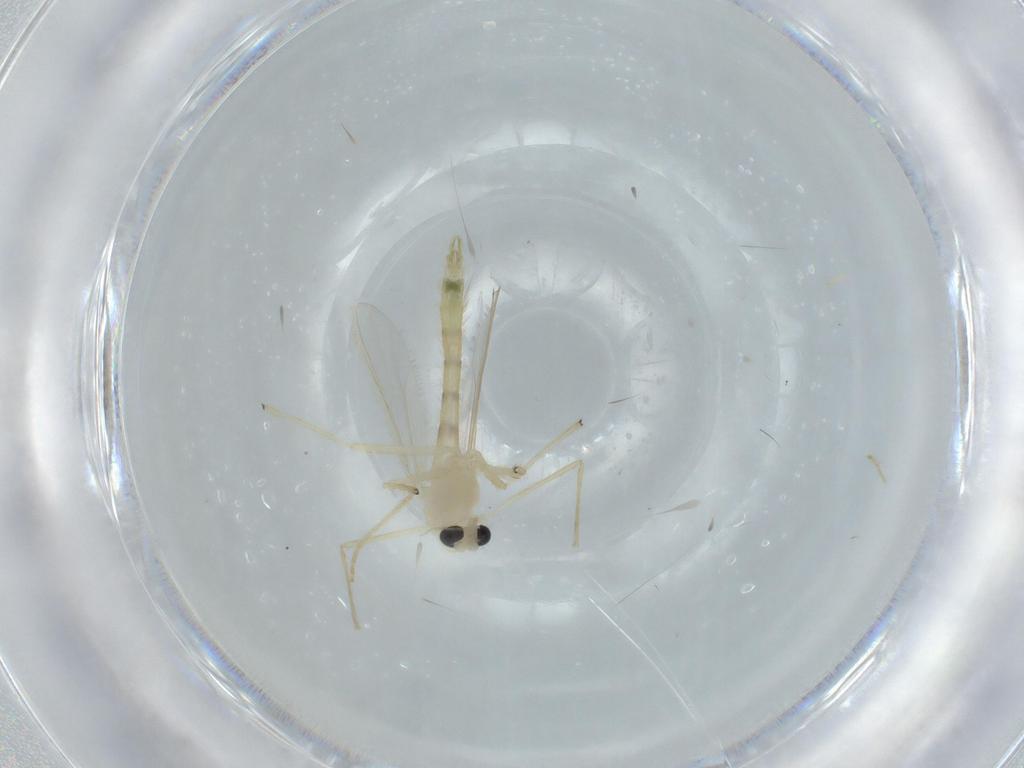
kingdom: Animalia
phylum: Arthropoda
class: Insecta
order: Diptera
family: Chironomidae
